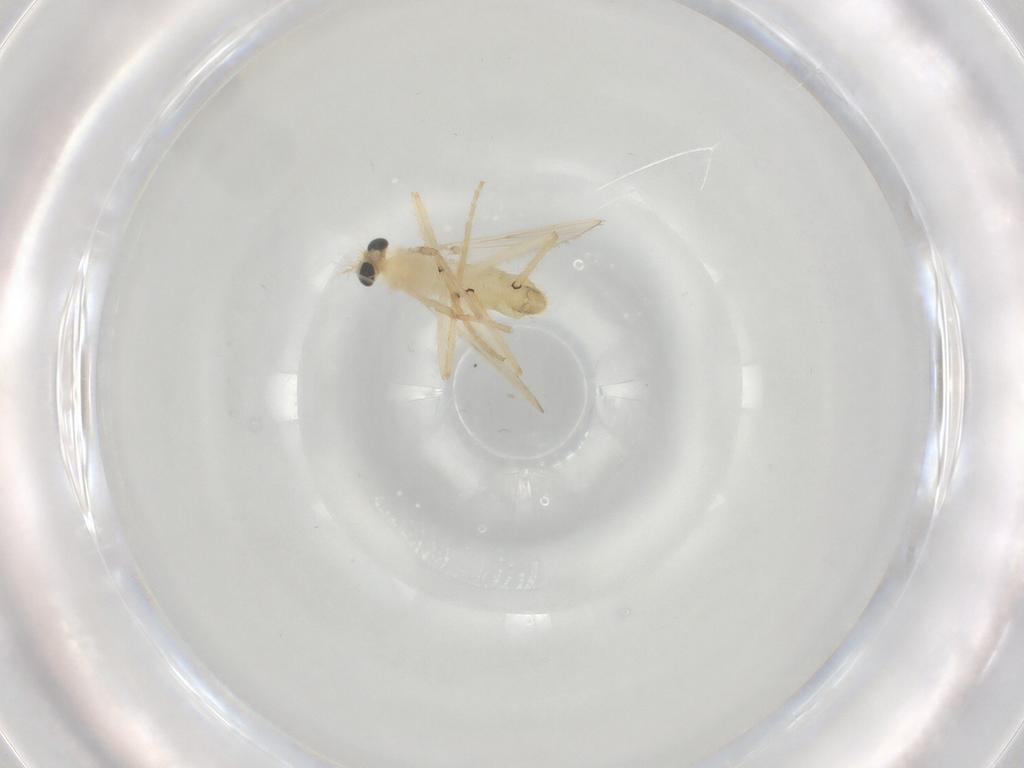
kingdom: Animalia
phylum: Arthropoda
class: Insecta
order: Diptera
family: Chironomidae
